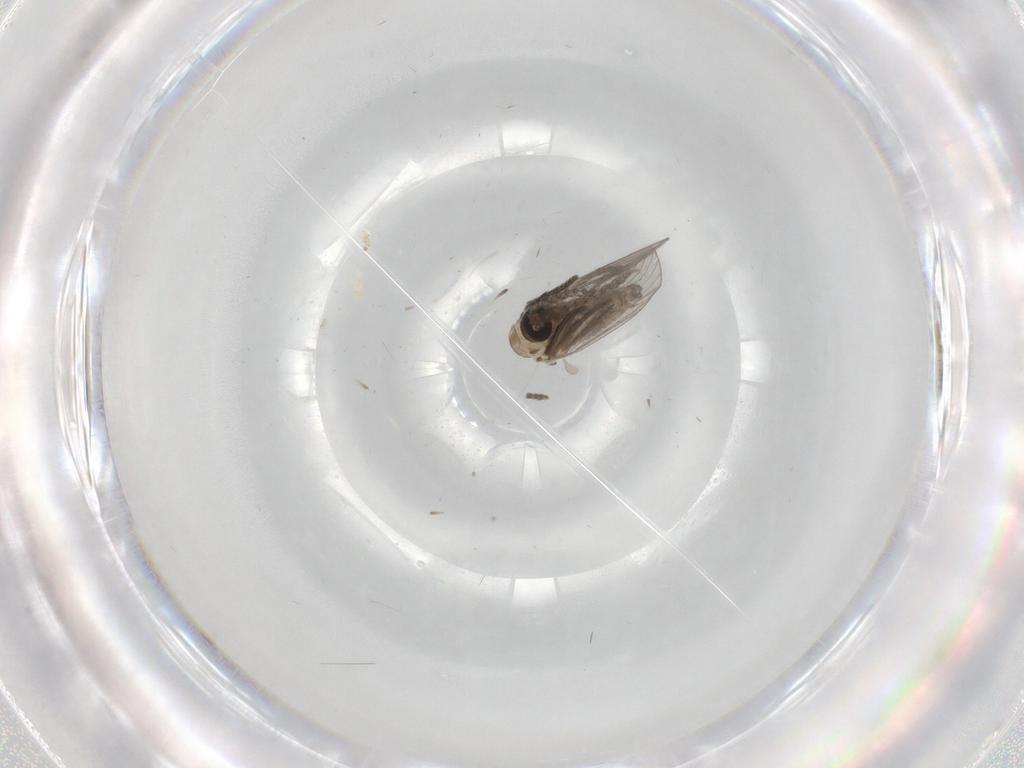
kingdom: Animalia
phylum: Arthropoda
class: Insecta
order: Diptera
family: Psychodidae
